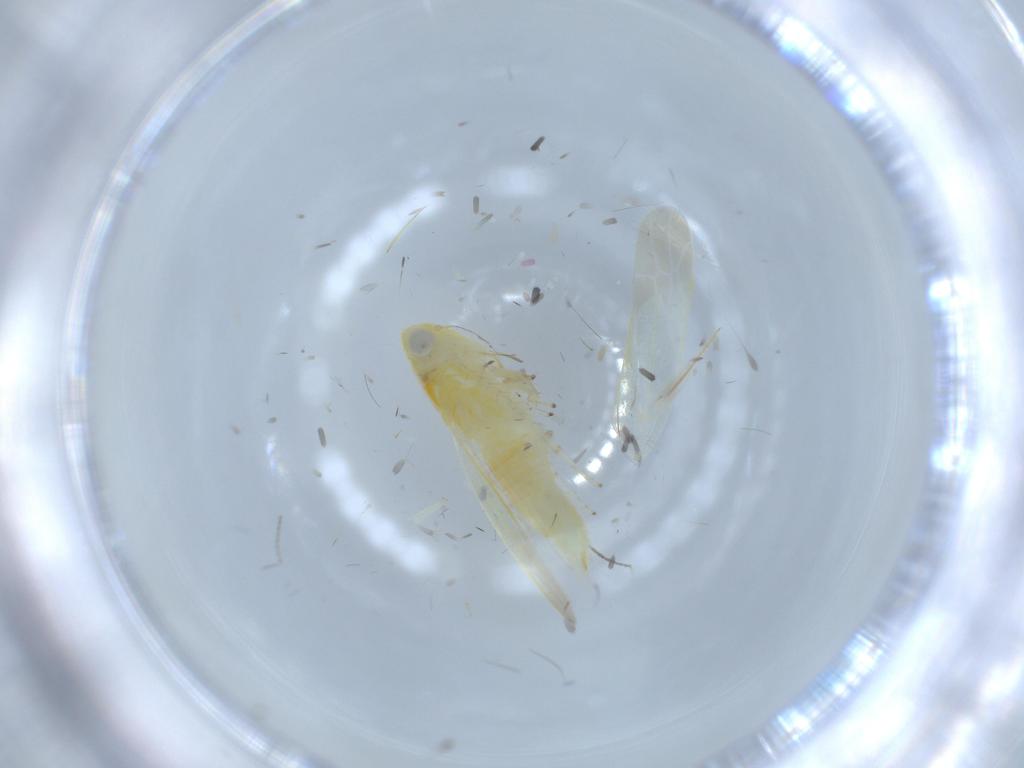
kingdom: Animalia
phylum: Arthropoda
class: Insecta
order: Hemiptera
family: Cicadellidae
